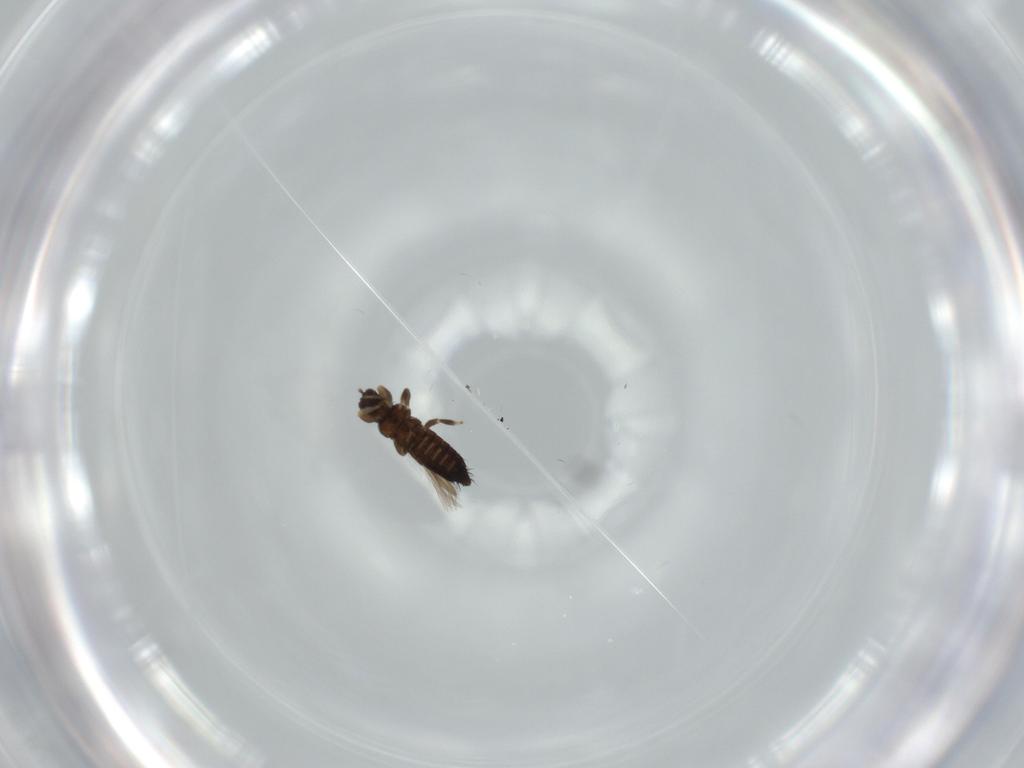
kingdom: Animalia
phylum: Arthropoda
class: Insecta
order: Thysanoptera
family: Thripidae
